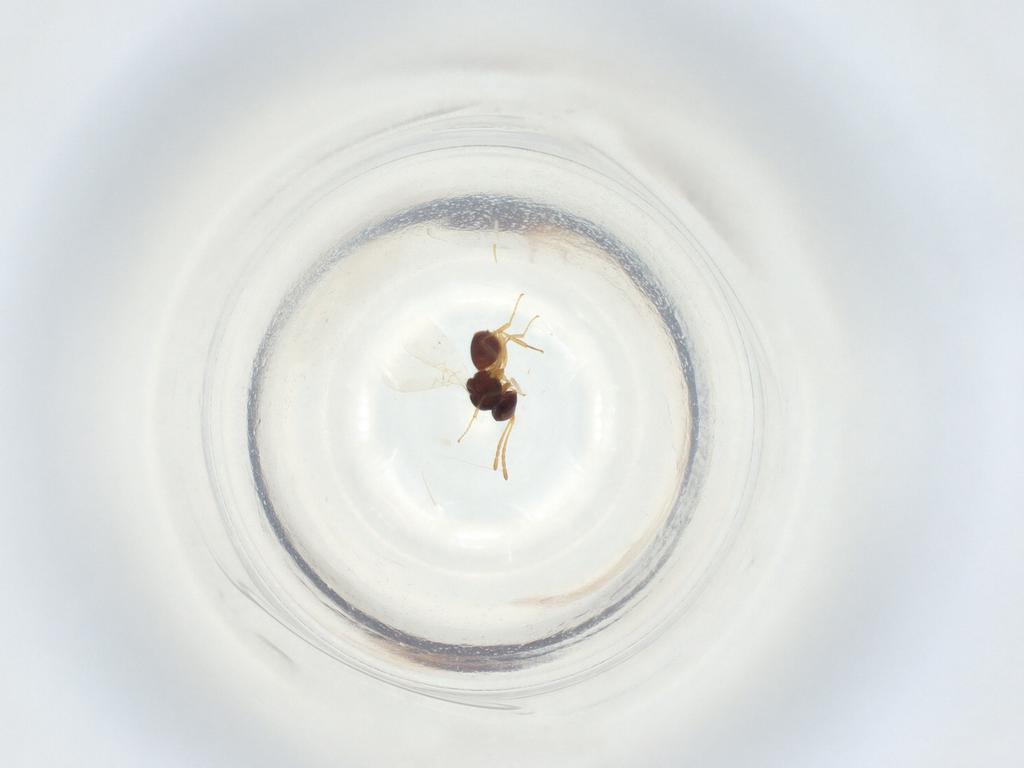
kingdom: Animalia
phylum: Arthropoda
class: Insecta
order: Hymenoptera
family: Figitidae
